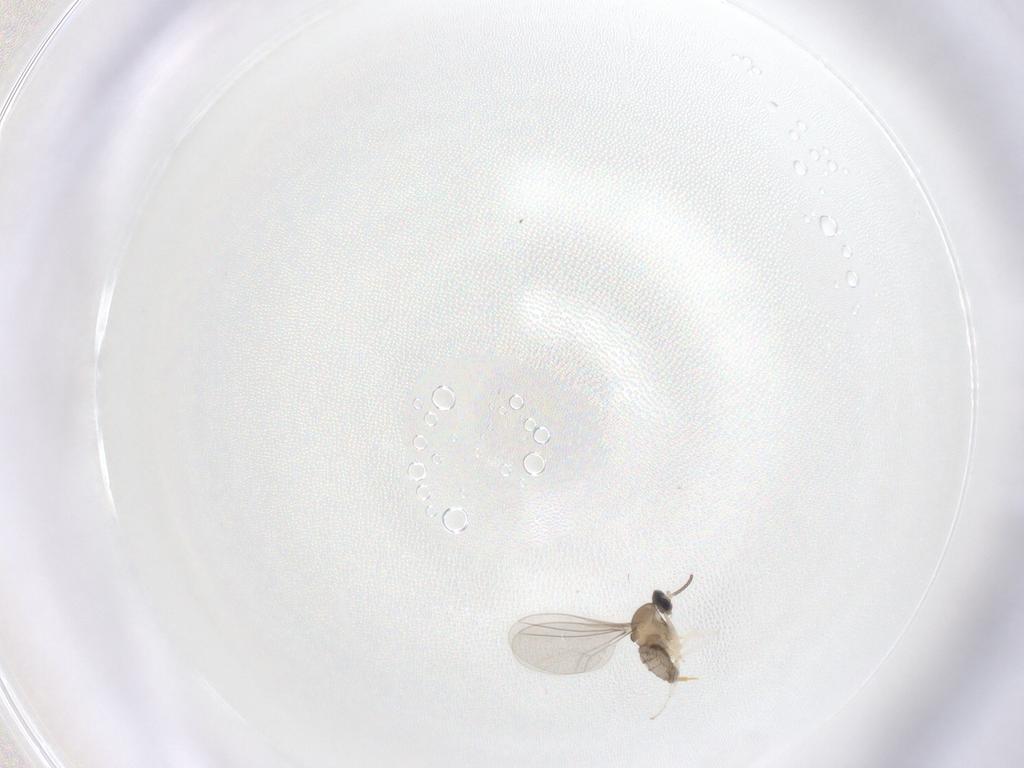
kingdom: Animalia
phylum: Arthropoda
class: Insecta
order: Diptera
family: Cecidomyiidae
